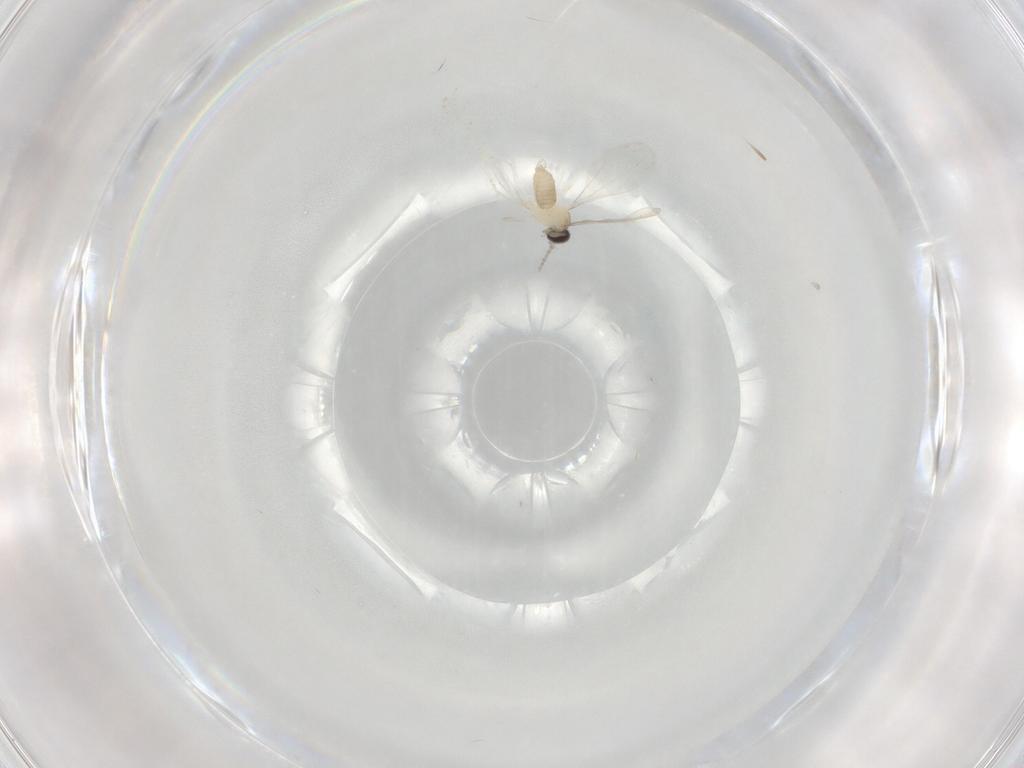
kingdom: Animalia
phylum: Arthropoda
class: Insecta
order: Diptera
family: Cecidomyiidae
